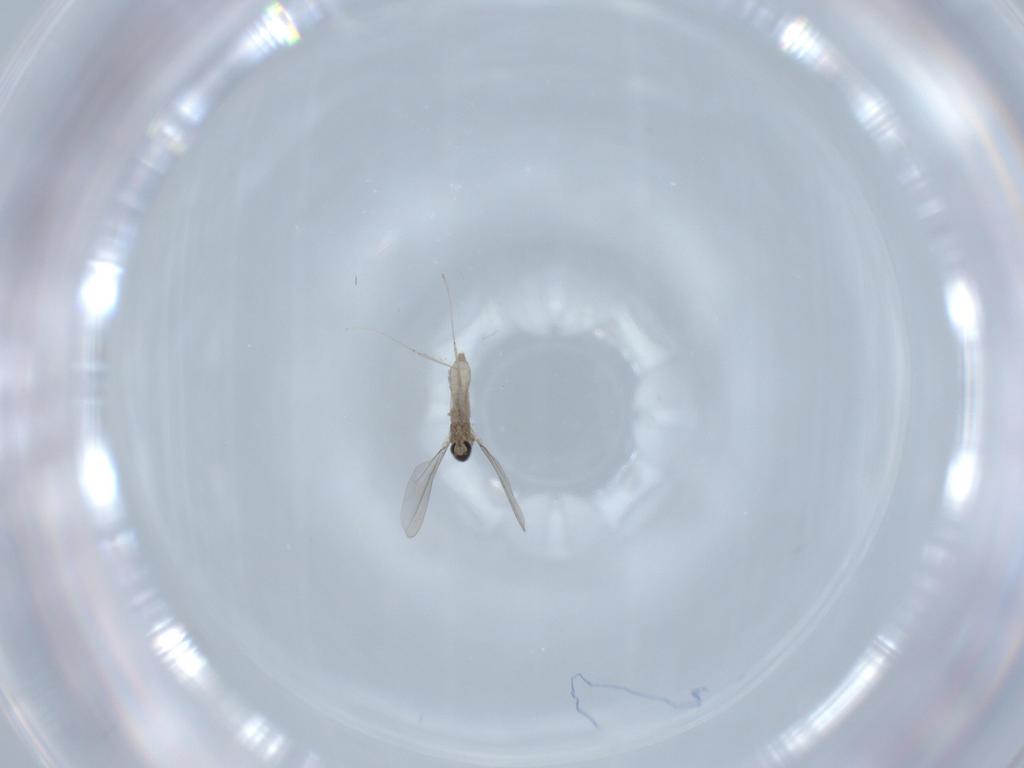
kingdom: Animalia
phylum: Arthropoda
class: Insecta
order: Diptera
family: Cecidomyiidae
